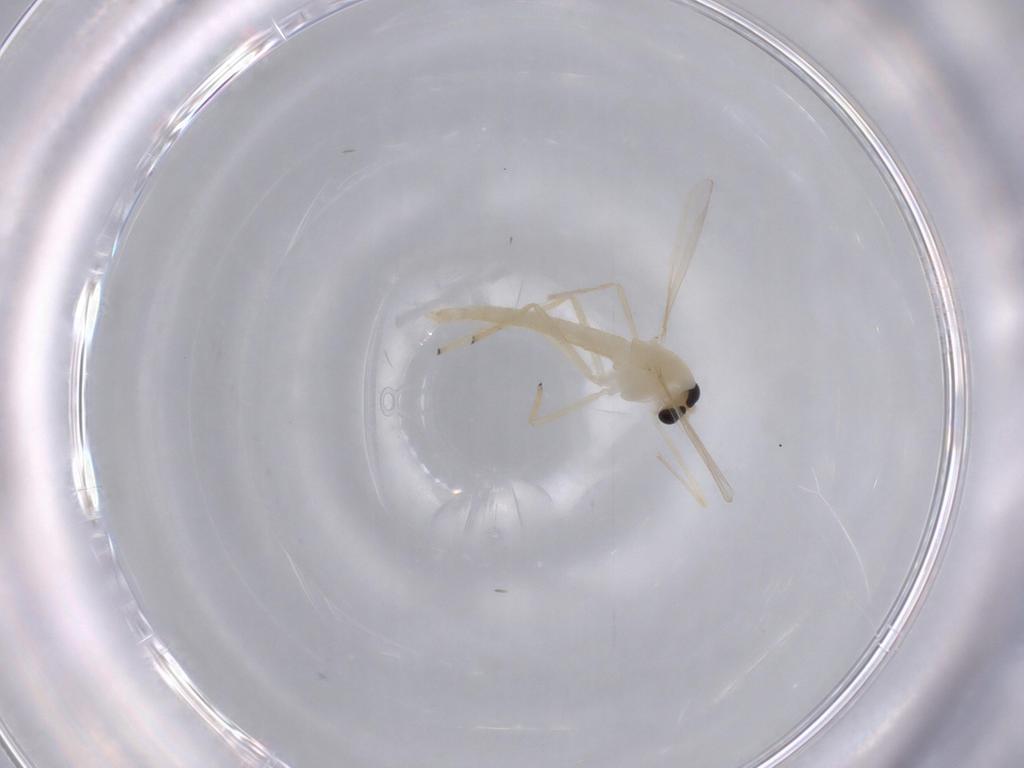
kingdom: Animalia
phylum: Arthropoda
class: Insecta
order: Diptera
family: Chironomidae
